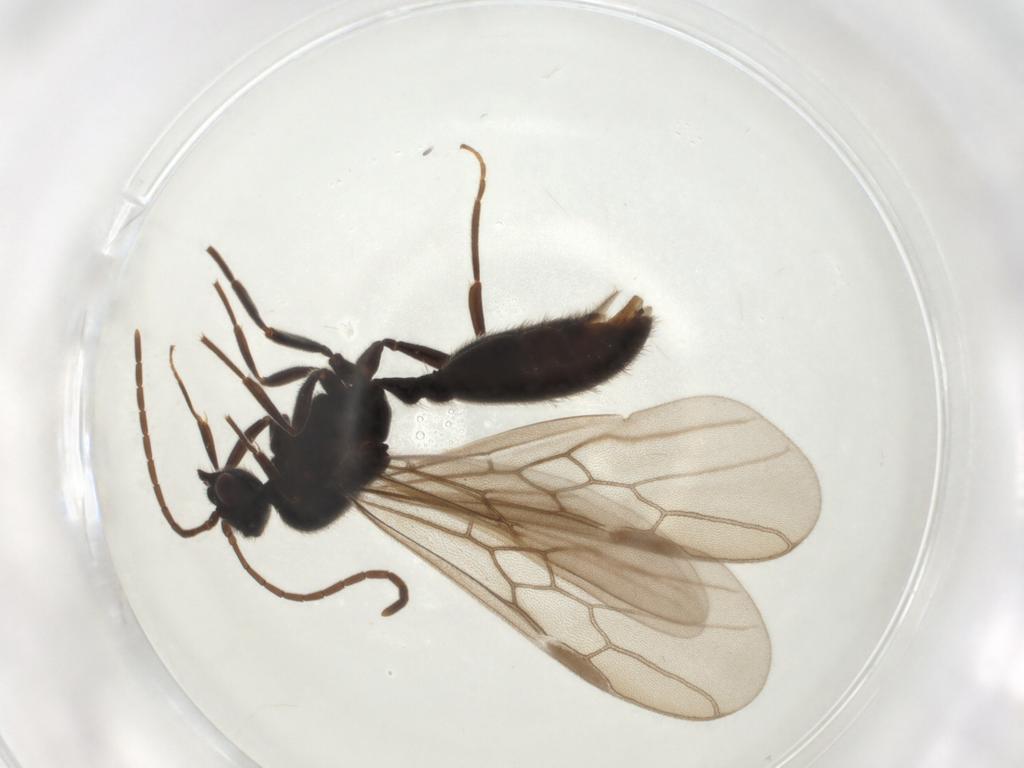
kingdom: Animalia
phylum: Arthropoda
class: Insecta
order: Hymenoptera
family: Formicidae
